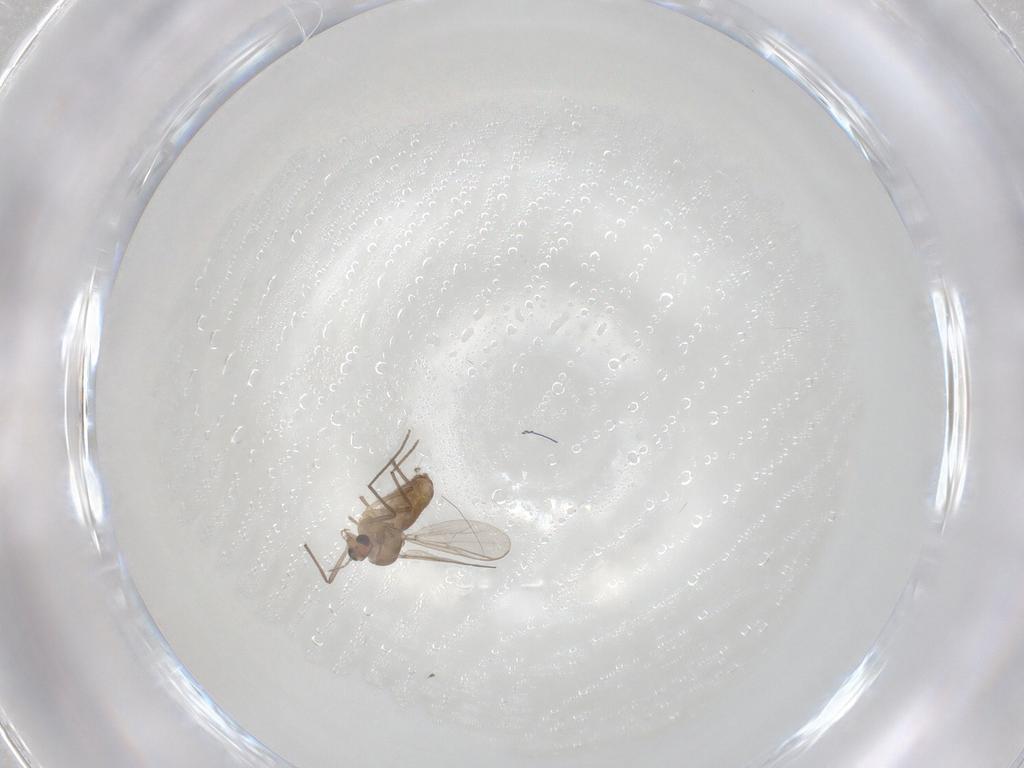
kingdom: Animalia
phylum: Arthropoda
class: Insecta
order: Diptera
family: Chironomidae
